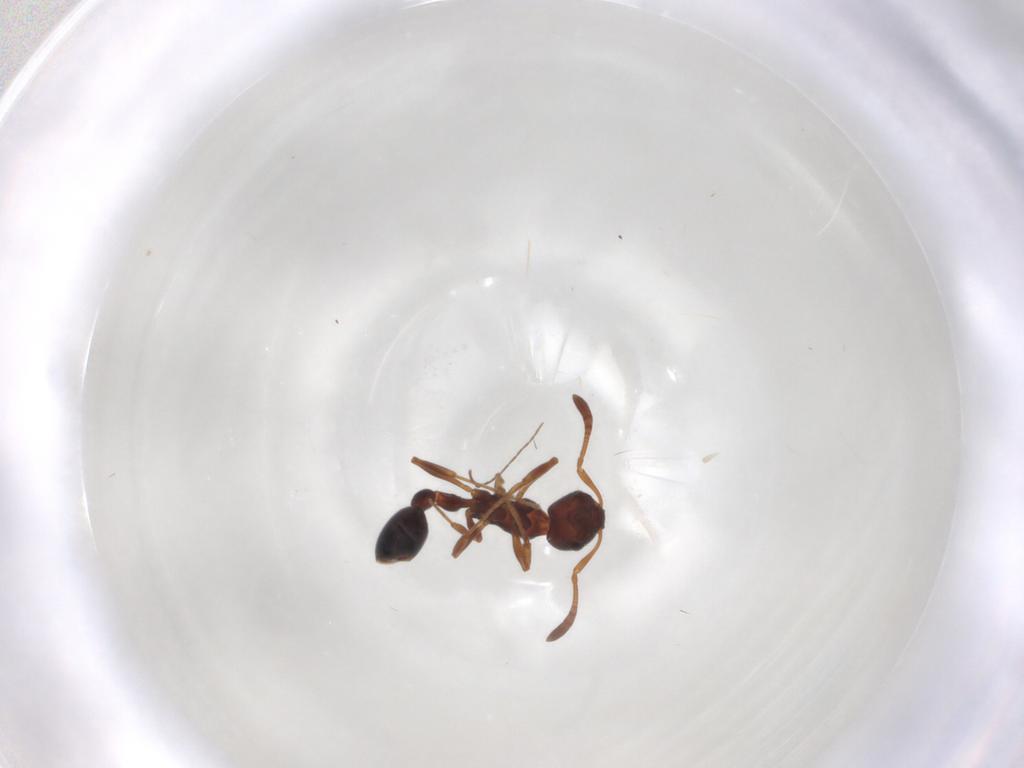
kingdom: Animalia
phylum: Arthropoda
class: Insecta
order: Hymenoptera
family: Formicidae
